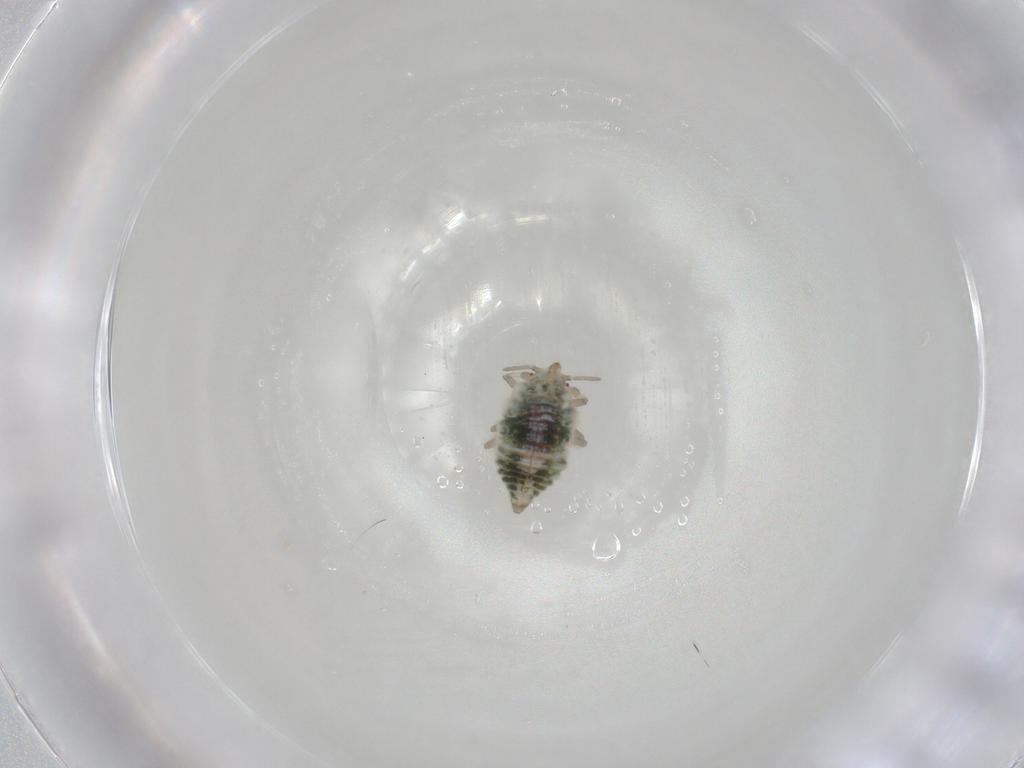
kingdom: Animalia
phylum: Arthropoda
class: Insecta
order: Neuroptera
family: Coniopterygidae
